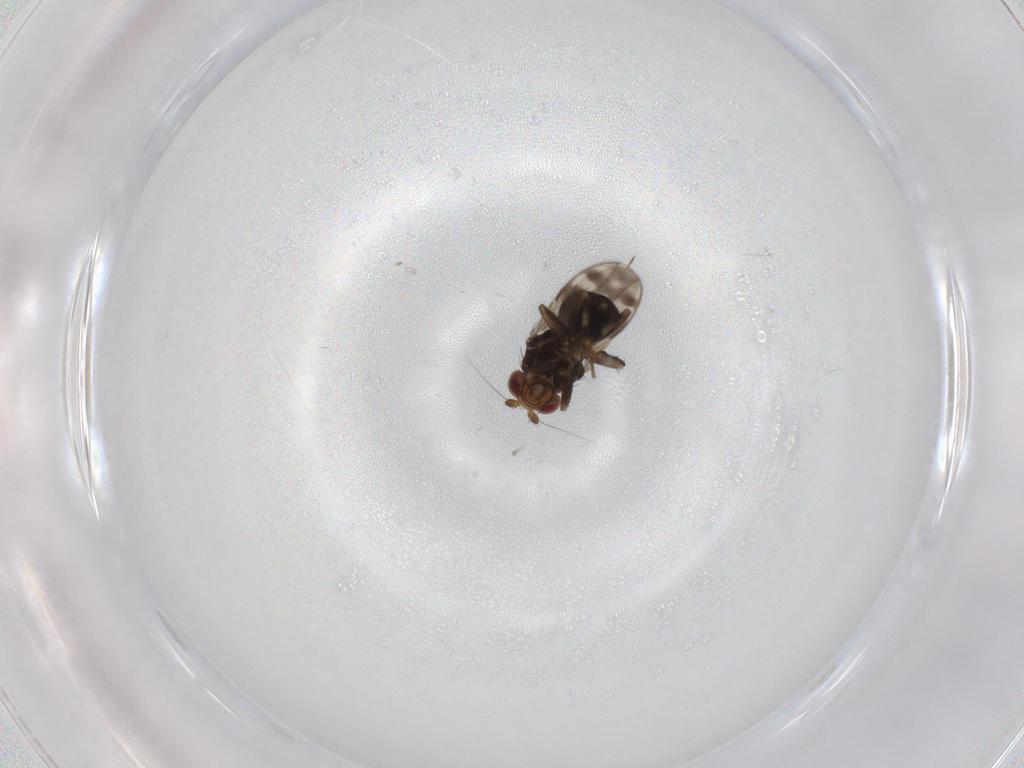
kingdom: Animalia
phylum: Arthropoda
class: Insecta
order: Diptera
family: Sphaeroceridae
